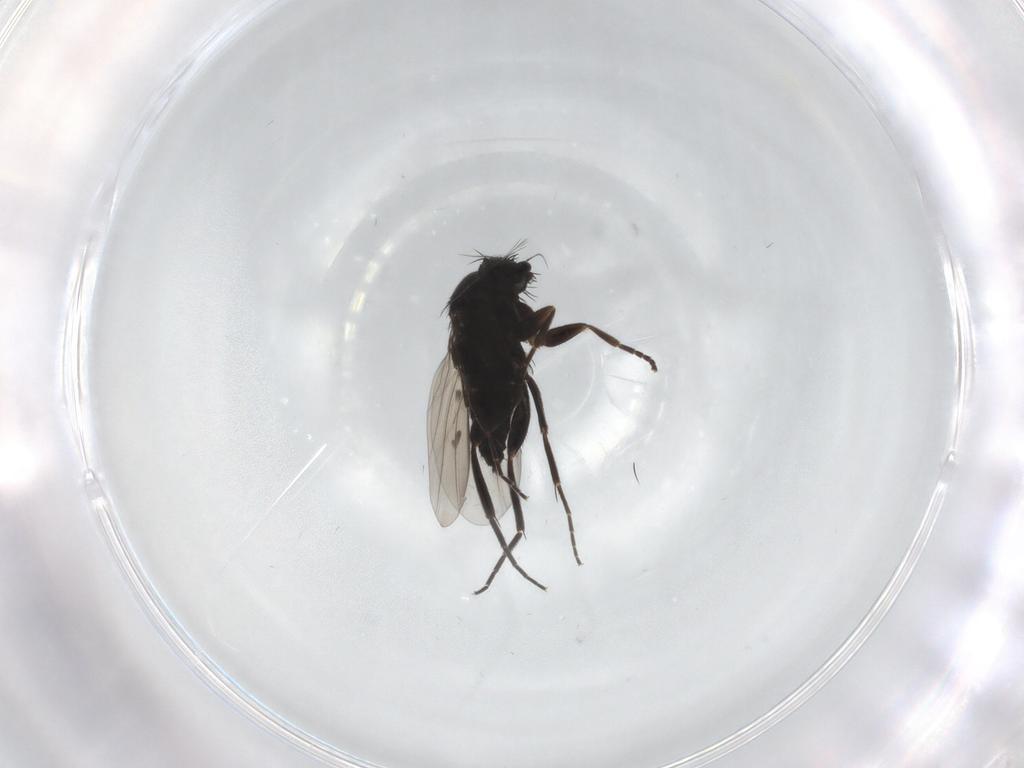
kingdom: Animalia
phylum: Arthropoda
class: Insecta
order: Diptera
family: Phoridae
